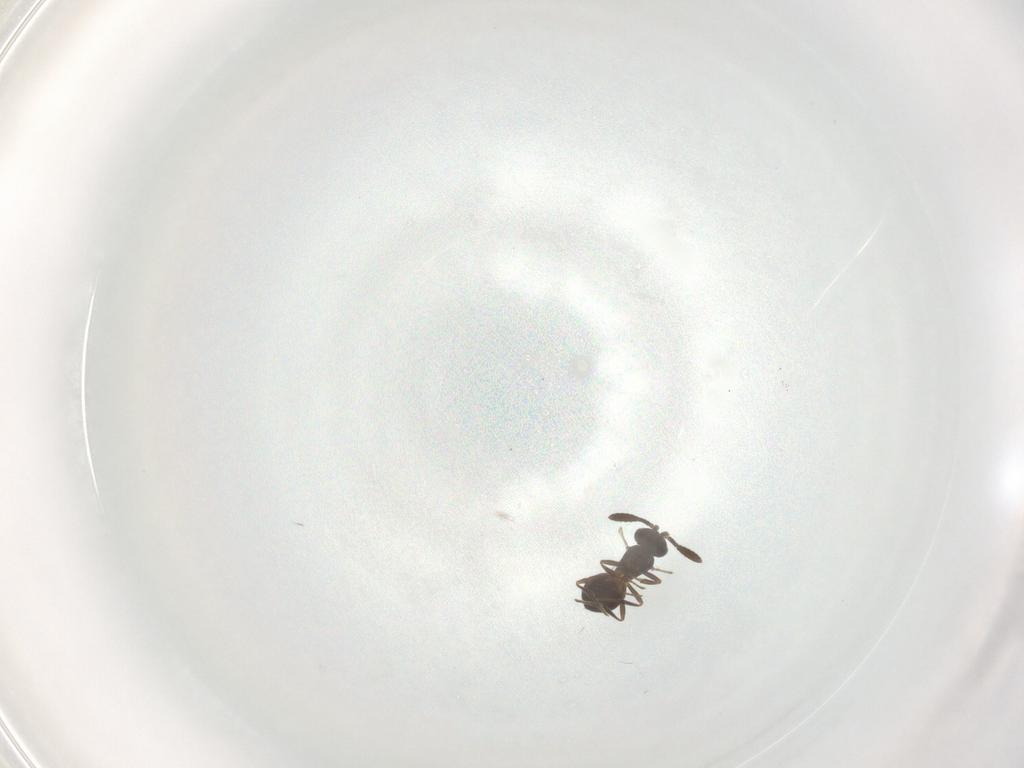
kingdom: Animalia
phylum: Arthropoda
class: Insecta
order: Hymenoptera
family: Scelionidae
